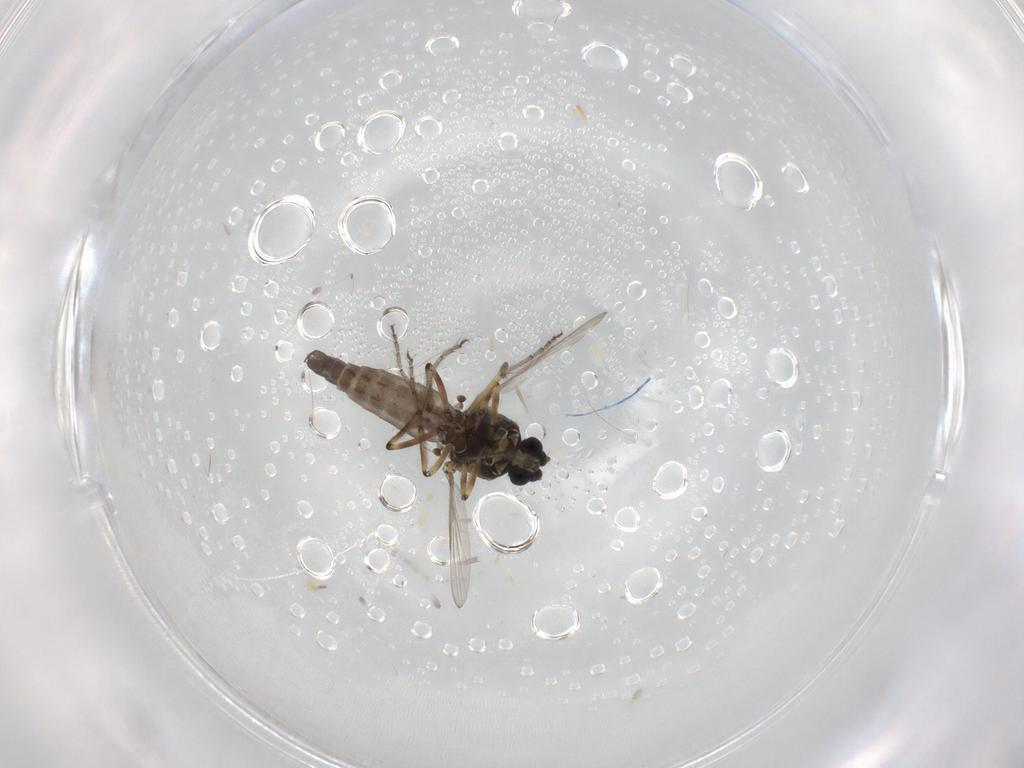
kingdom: Animalia
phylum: Arthropoda
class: Insecta
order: Diptera
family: Ceratopogonidae
